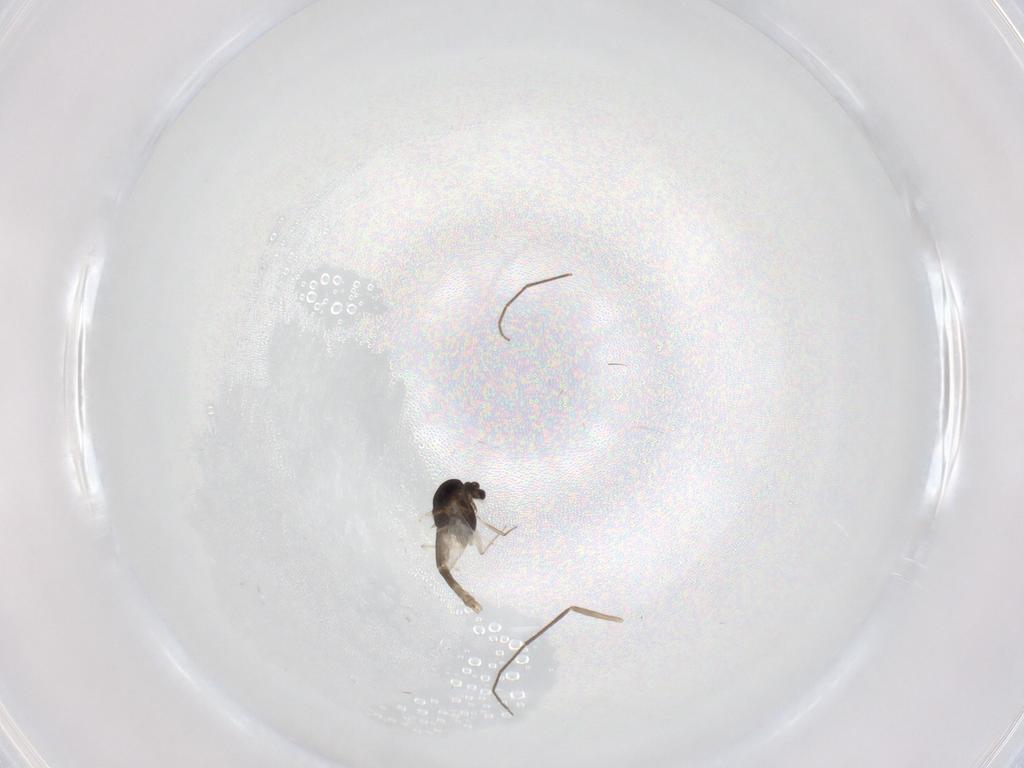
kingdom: Animalia
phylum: Arthropoda
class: Insecta
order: Diptera
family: Chironomidae
